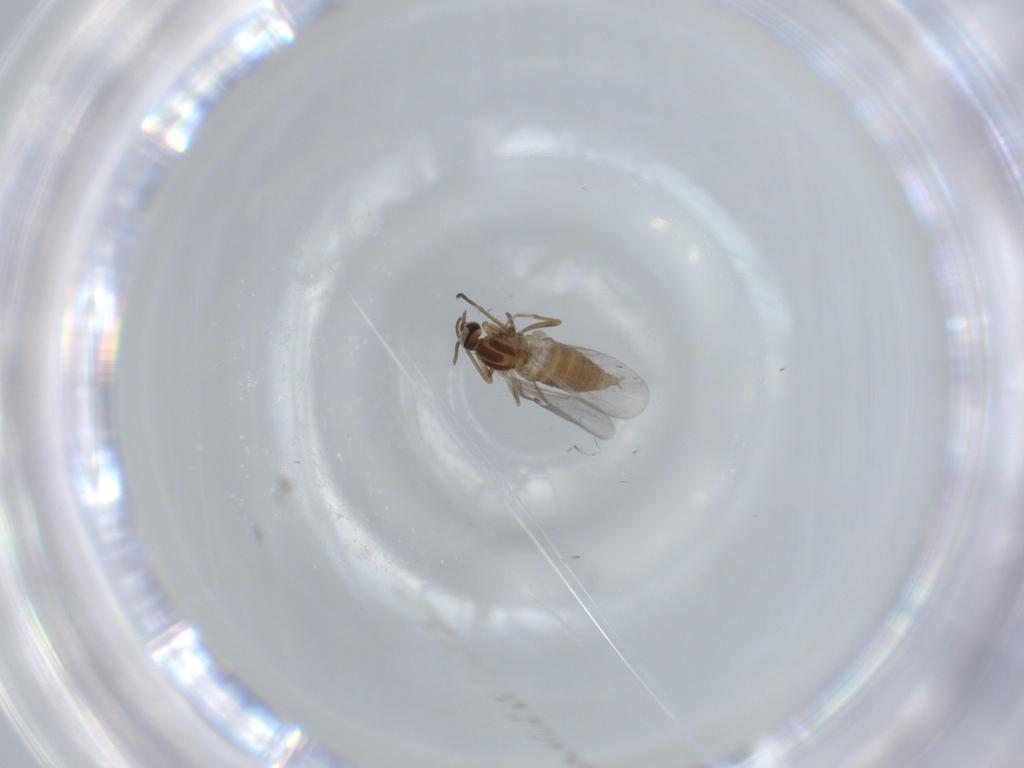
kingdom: Animalia
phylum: Arthropoda
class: Insecta
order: Diptera
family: Cecidomyiidae
